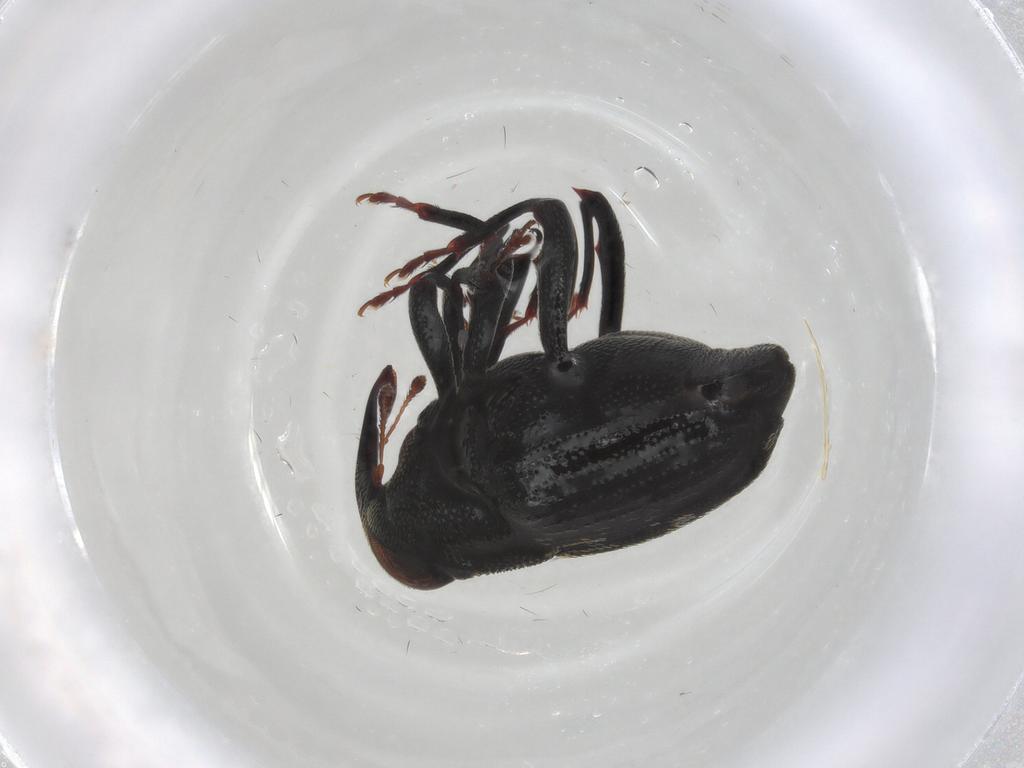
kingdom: Animalia
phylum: Arthropoda
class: Insecta
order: Coleoptera
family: Curculionidae
